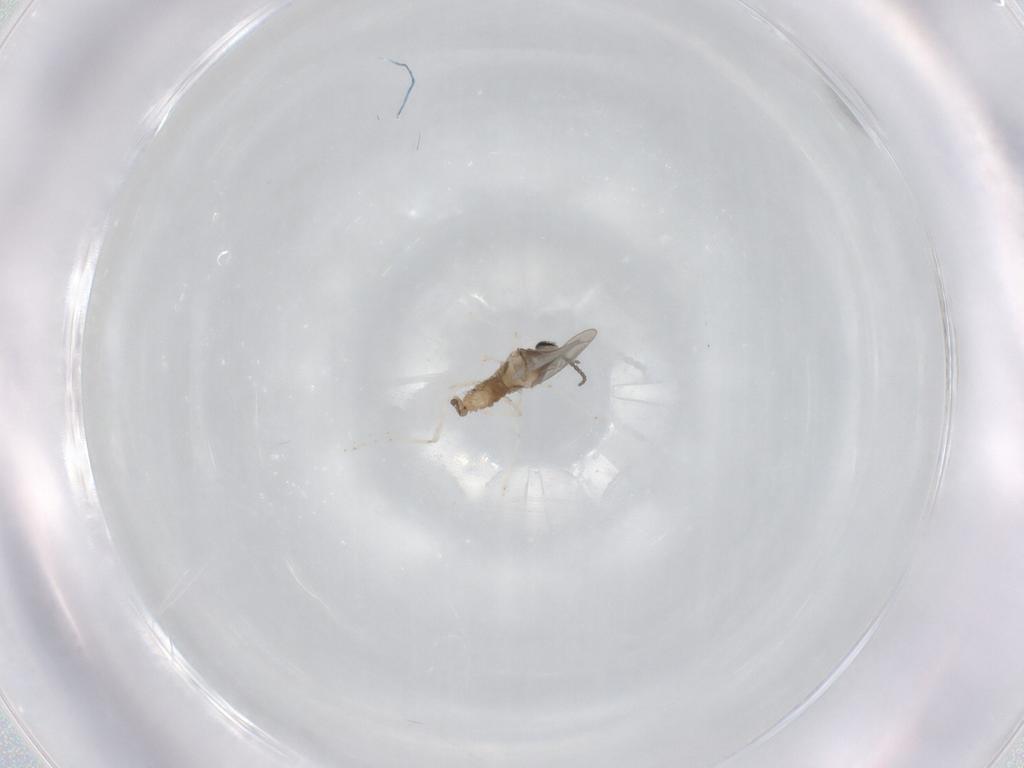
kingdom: Animalia
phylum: Arthropoda
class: Insecta
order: Diptera
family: Cecidomyiidae
